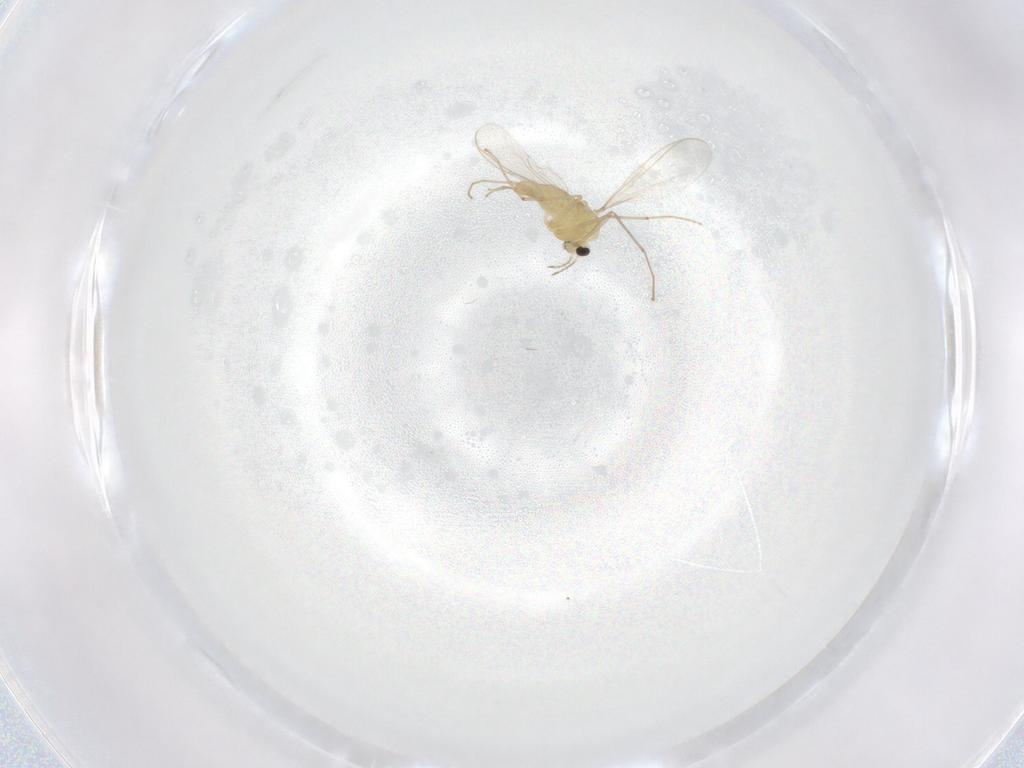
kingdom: Animalia
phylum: Arthropoda
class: Insecta
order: Diptera
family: Chironomidae
